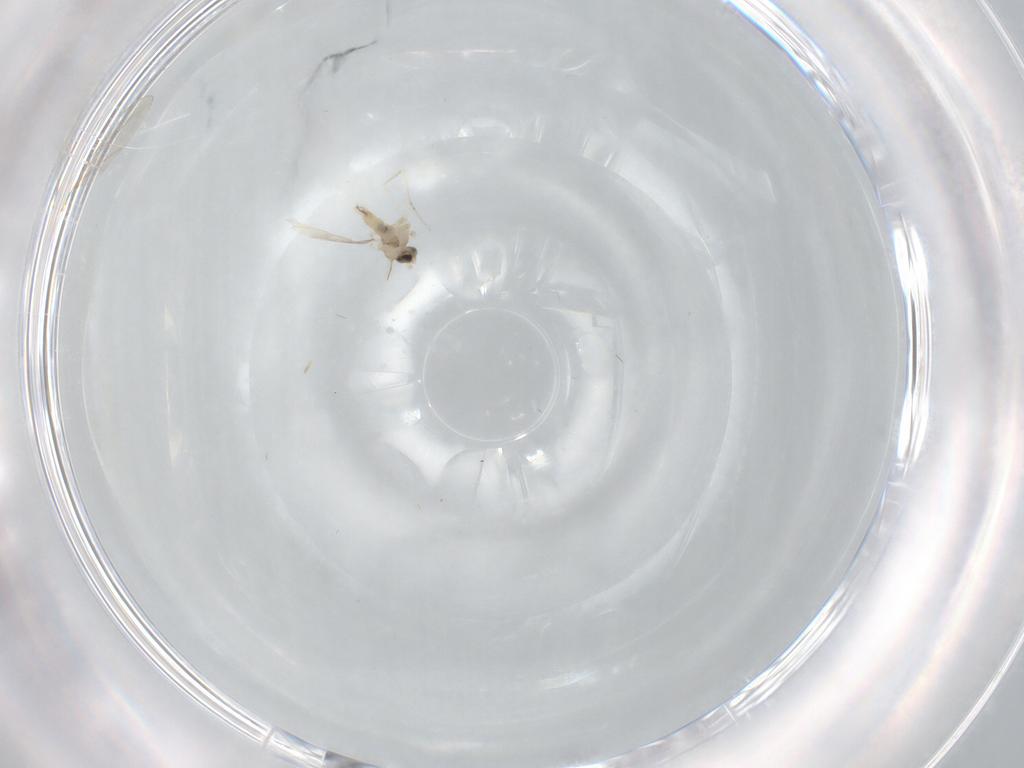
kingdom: Animalia
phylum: Arthropoda
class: Insecta
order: Diptera
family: Cecidomyiidae
